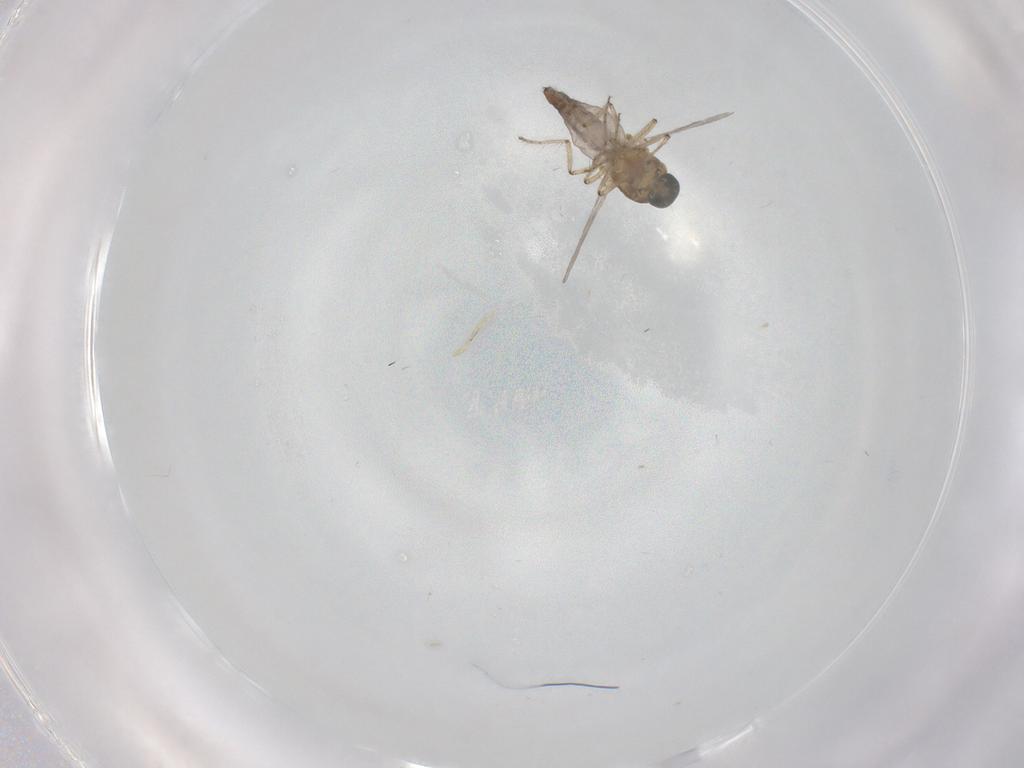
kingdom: Animalia
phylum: Arthropoda
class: Insecta
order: Diptera
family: Ceratopogonidae
